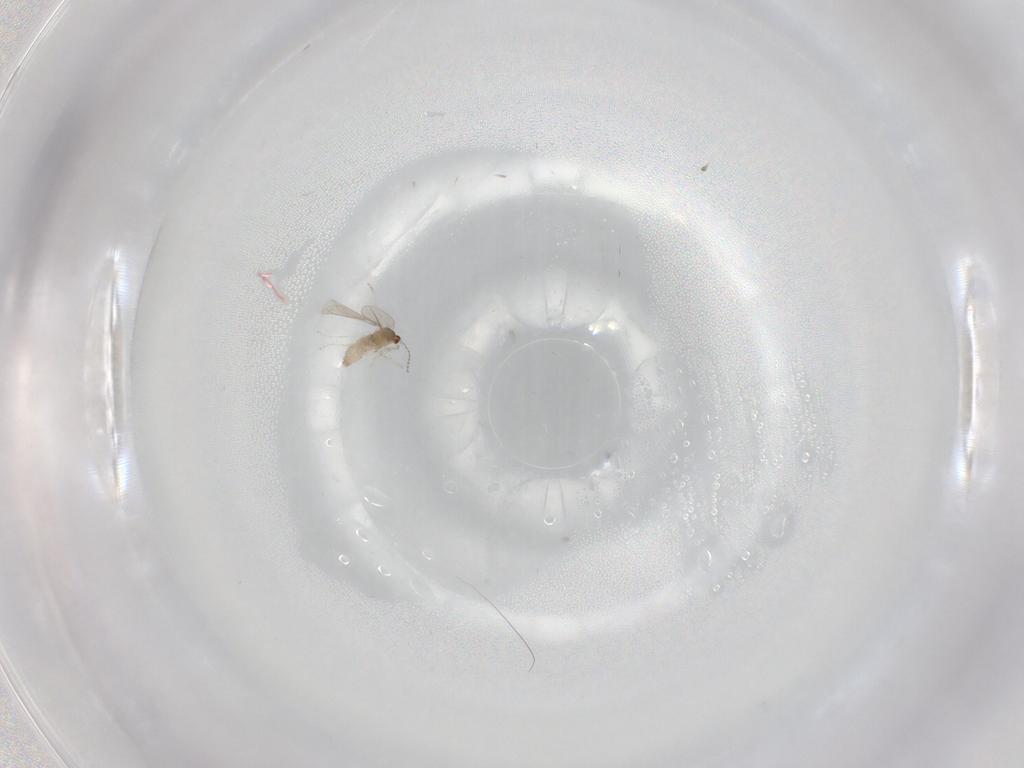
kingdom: Animalia
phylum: Arthropoda
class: Insecta
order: Diptera
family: Cecidomyiidae
